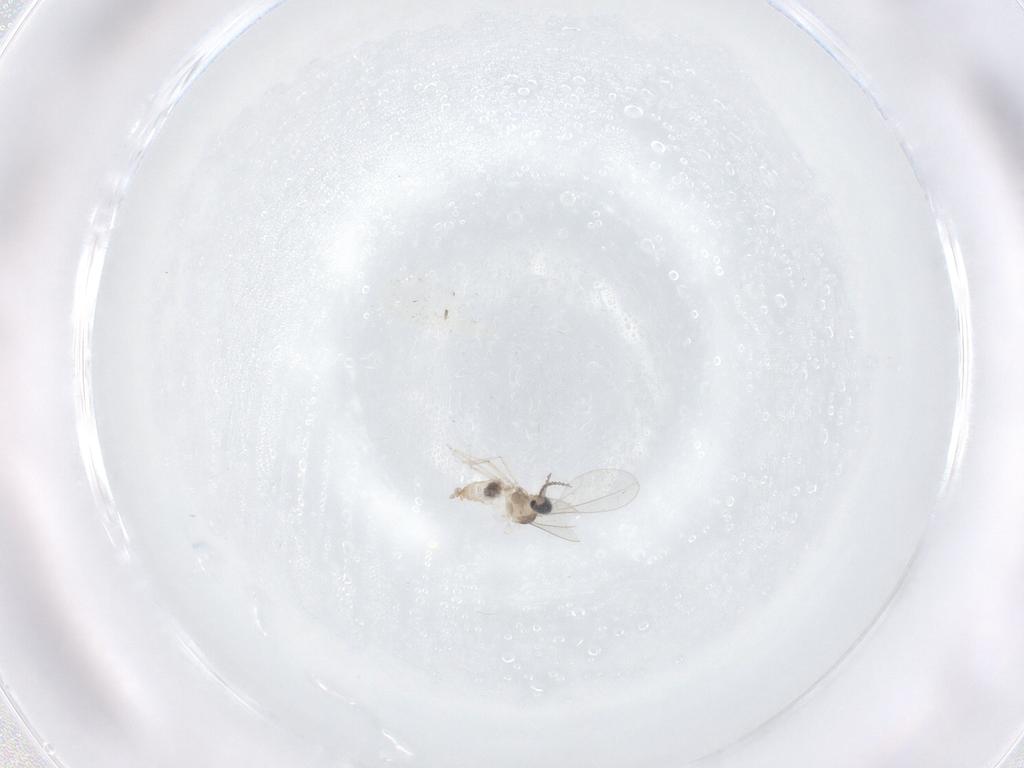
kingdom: Animalia
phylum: Arthropoda
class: Insecta
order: Diptera
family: Cecidomyiidae
